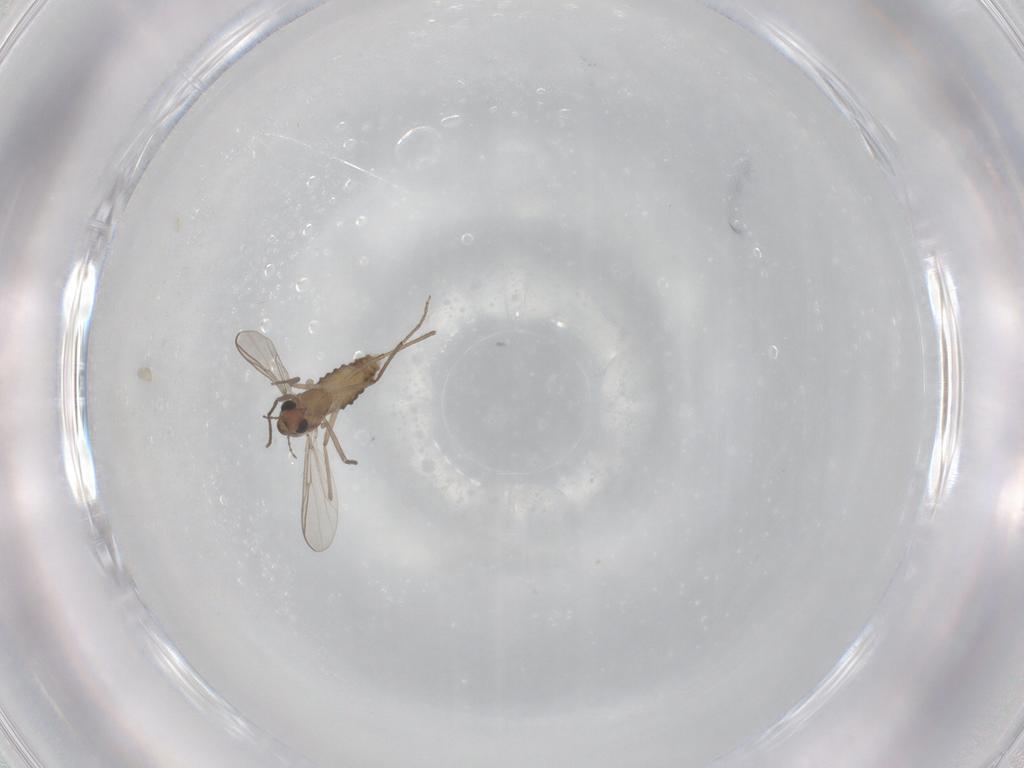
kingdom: Animalia
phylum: Arthropoda
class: Insecta
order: Diptera
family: Chironomidae
